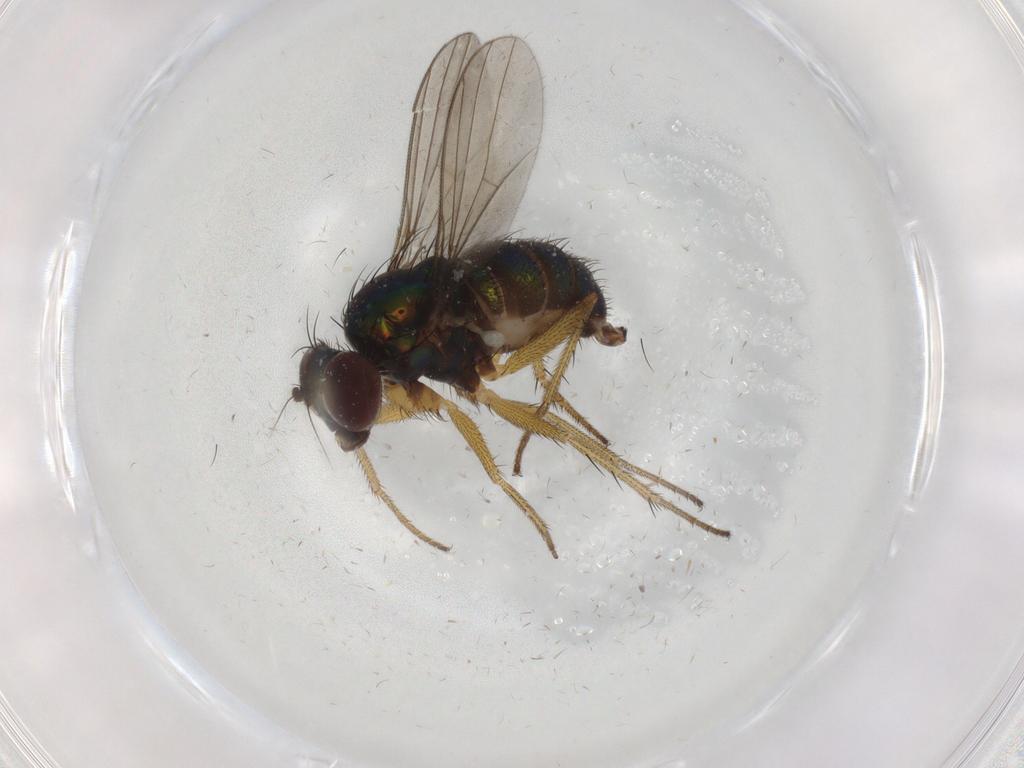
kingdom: Animalia
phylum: Arthropoda
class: Insecta
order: Diptera
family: Dolichopodidae
